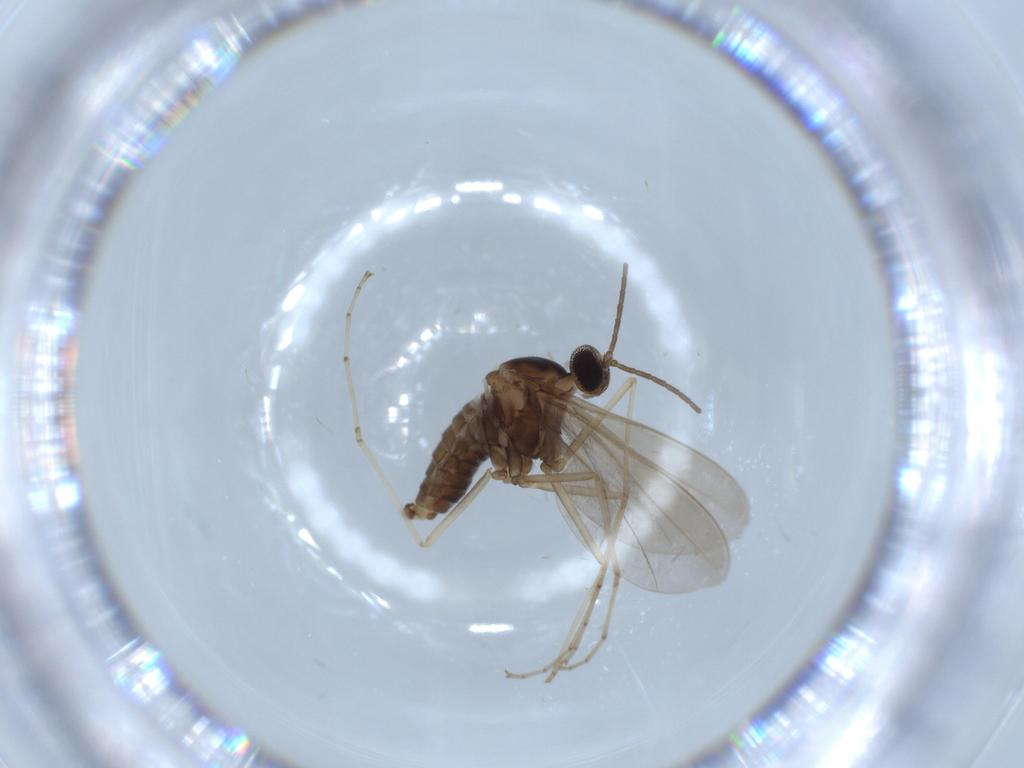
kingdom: Animalia
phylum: Arthropoda
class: Insecta
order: Diptera
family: Cecidomyiidae
